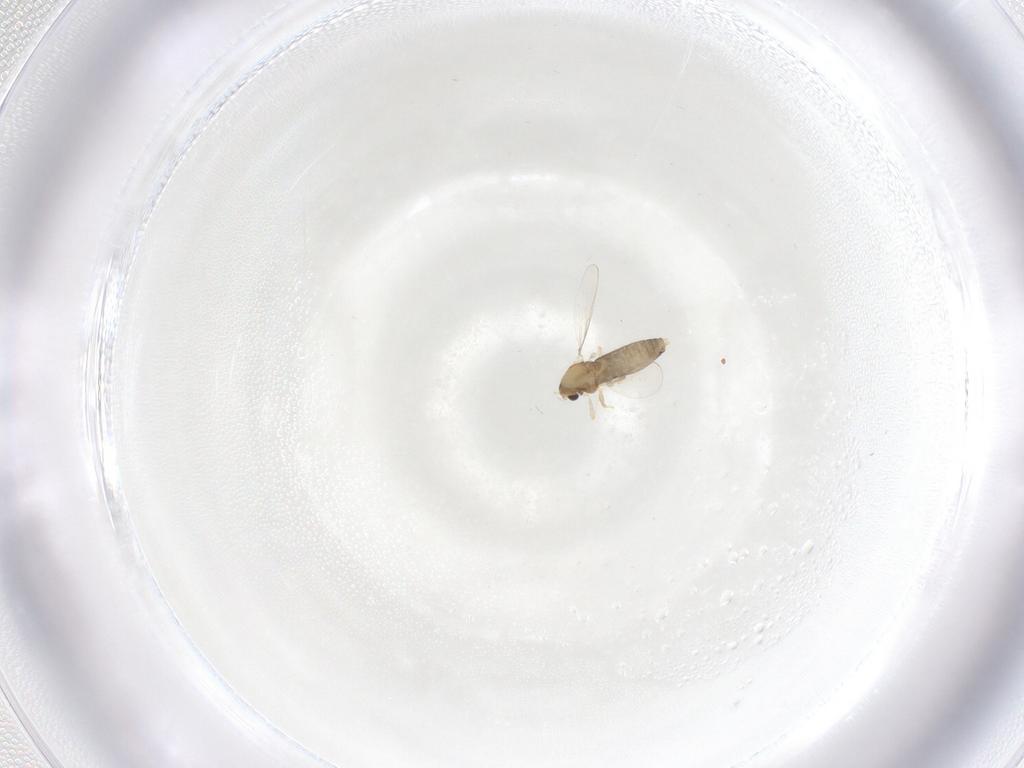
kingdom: Animalia
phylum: Arthropoda
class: Insecta
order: Diptera
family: Chironomidae
